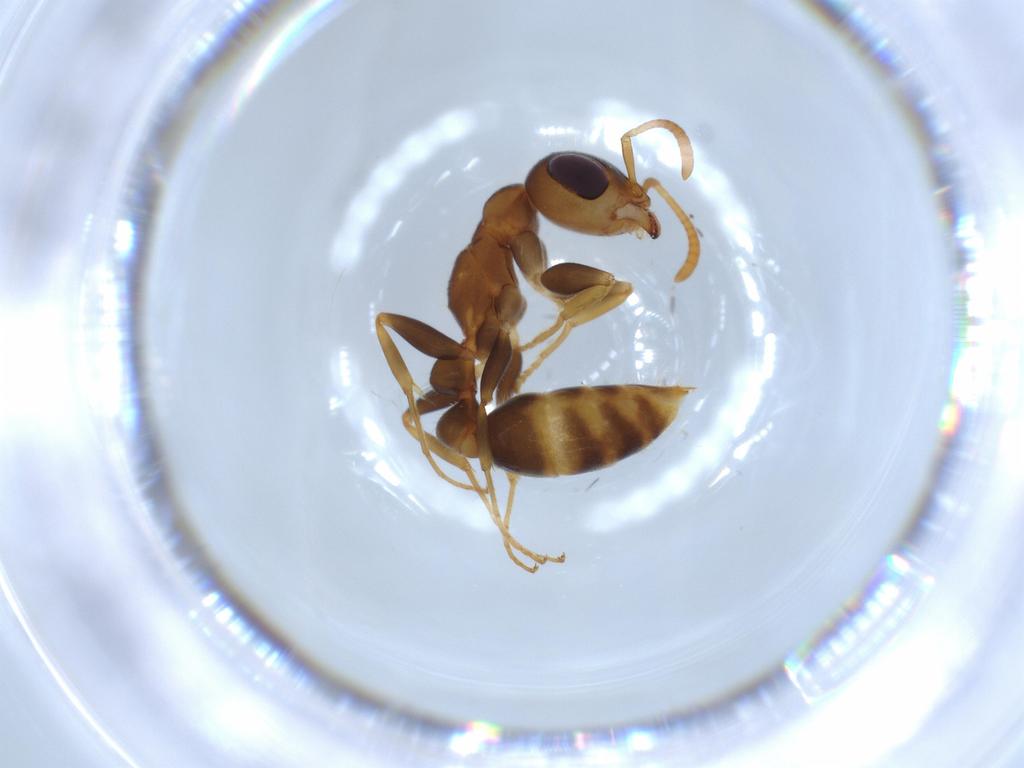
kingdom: Animalia
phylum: Arthropoda
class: Insecta
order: Hymenoptera
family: Formicidae
